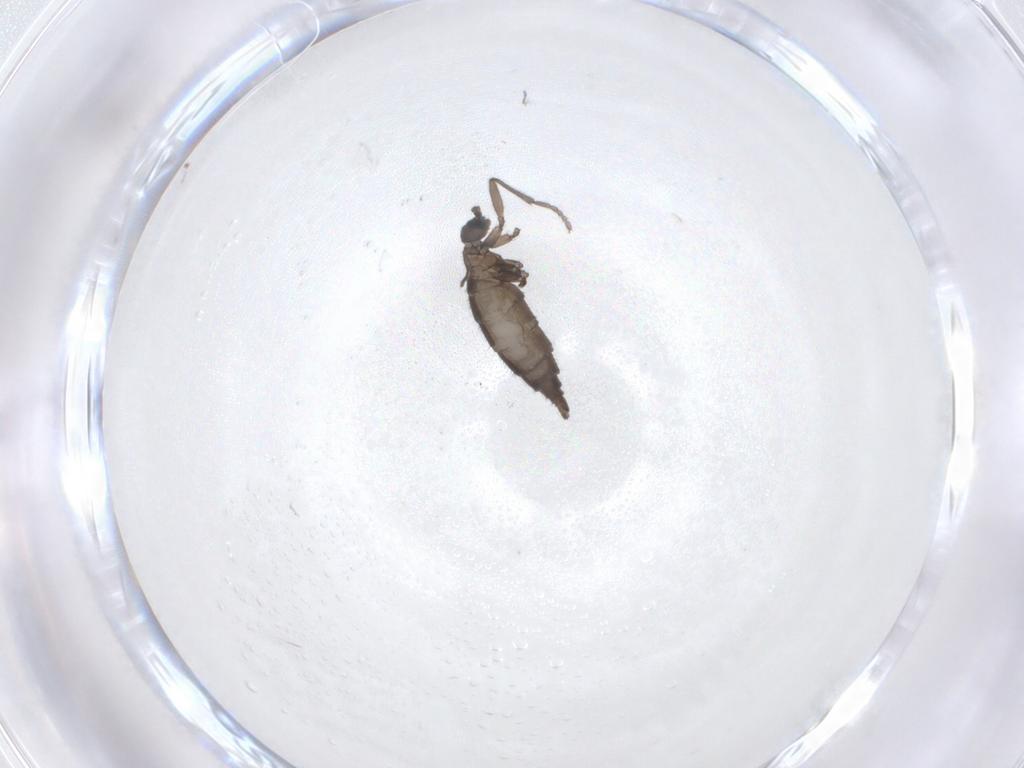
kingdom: Animalia
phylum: Arthropoda
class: Insecta
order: Diptera
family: Sciaridae
